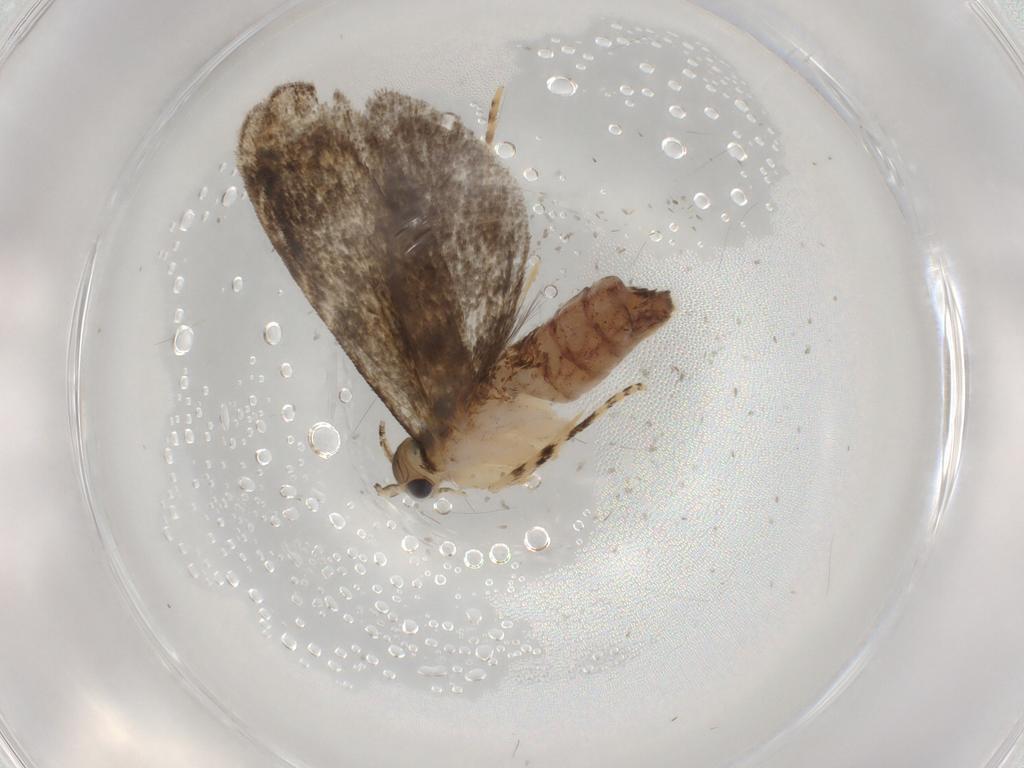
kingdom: Animalia
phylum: Arthropoda
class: Insecta
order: Lepidoptera
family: Tineidae
